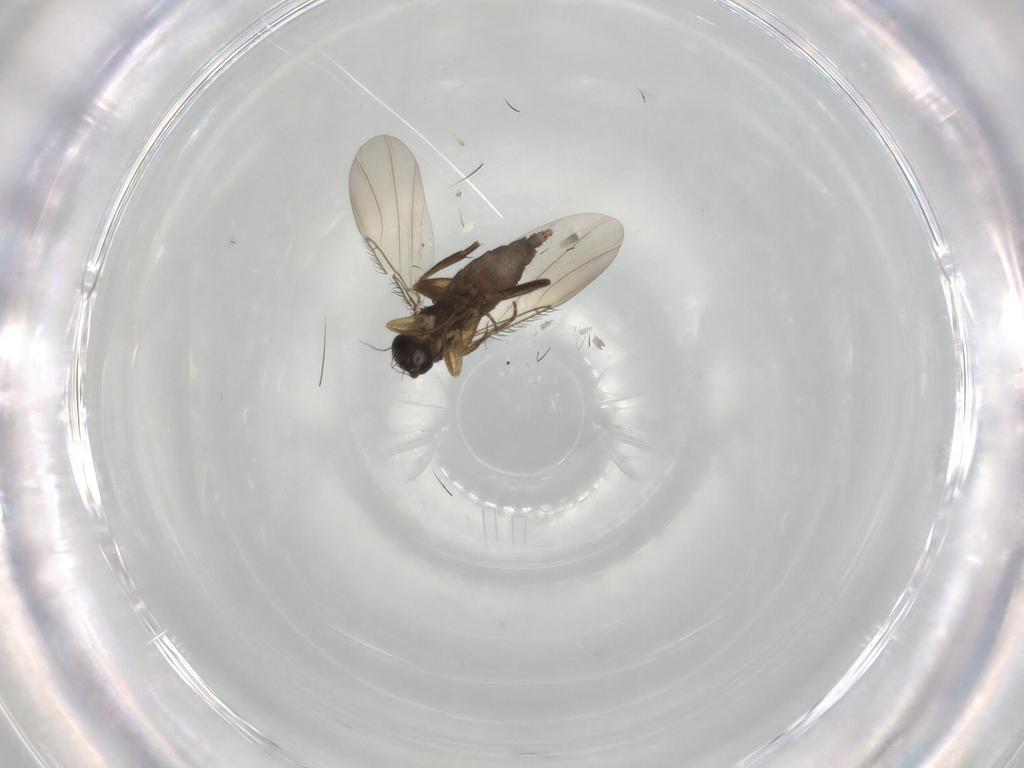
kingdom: Animalia
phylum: Arthropoda
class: Insecta
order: Diptera
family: Phoridae
